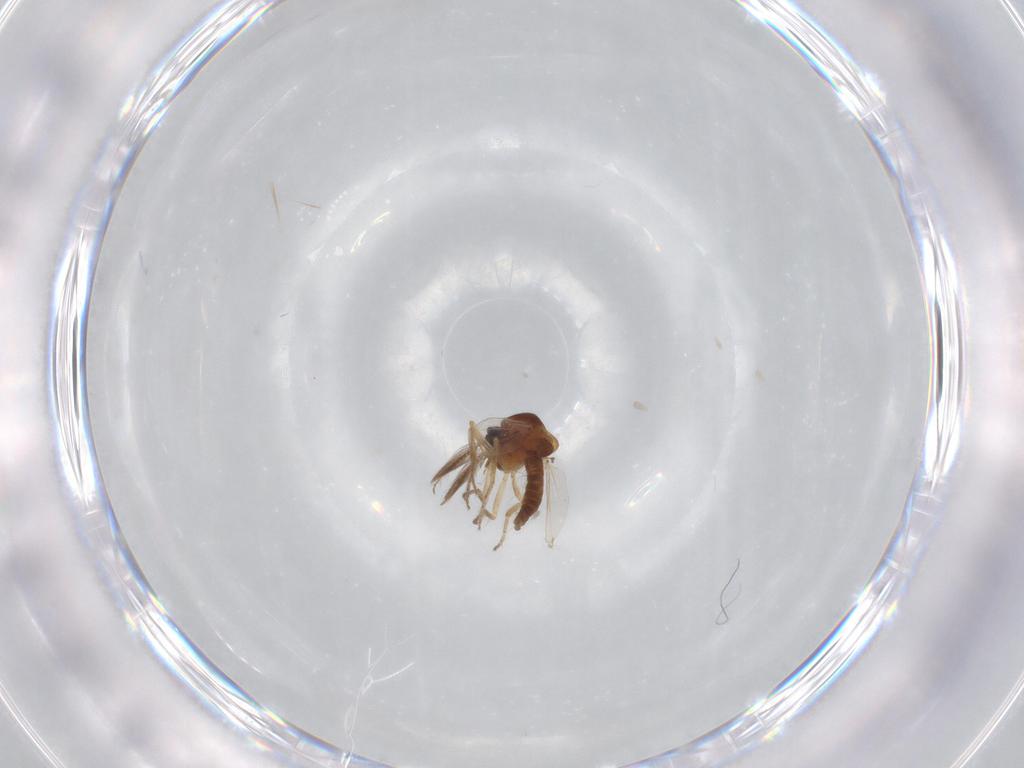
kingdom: Animalia
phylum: Arthropoda
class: Insecta
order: Diptera
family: Ceratopogonidae
